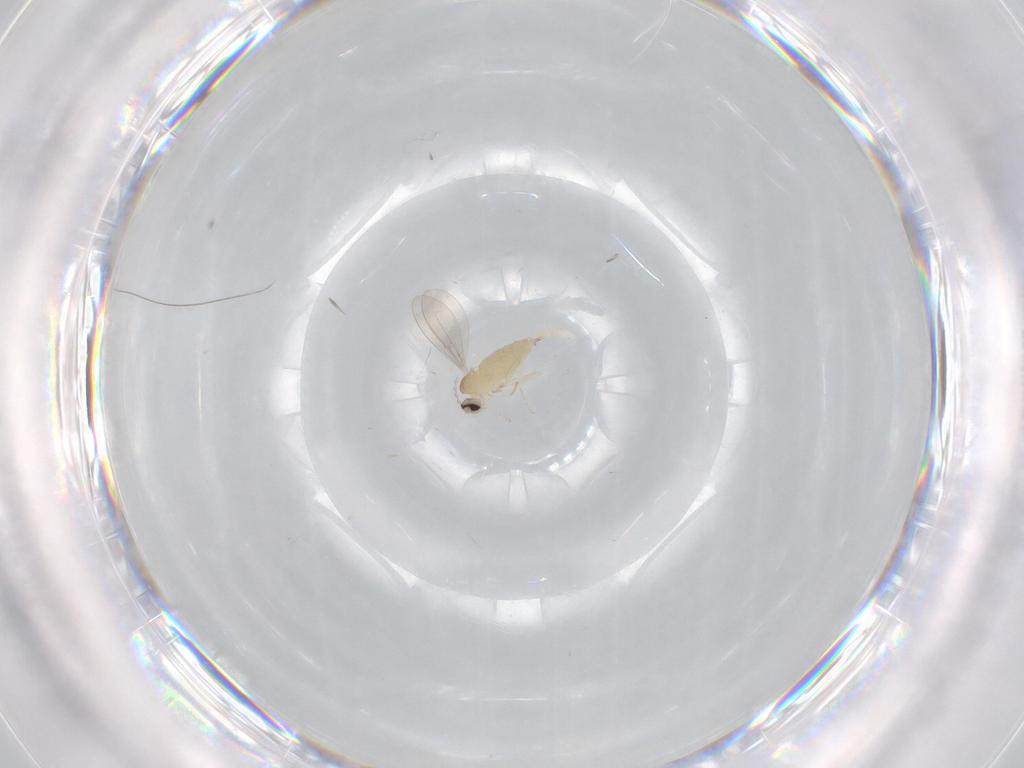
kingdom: Animalia
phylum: Arthropoda
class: Insecta
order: Diptera
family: Cecidomyiidae
